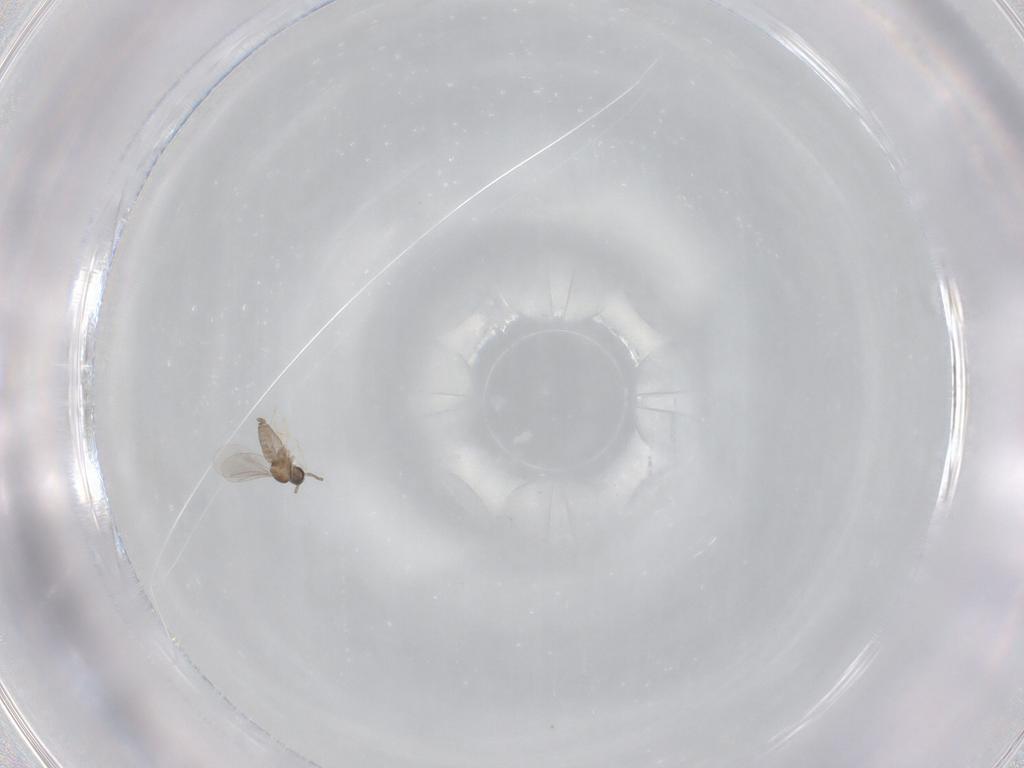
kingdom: Animalia
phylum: Arthropoda
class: Insecta
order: Diptera
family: Cecidomyiidae
